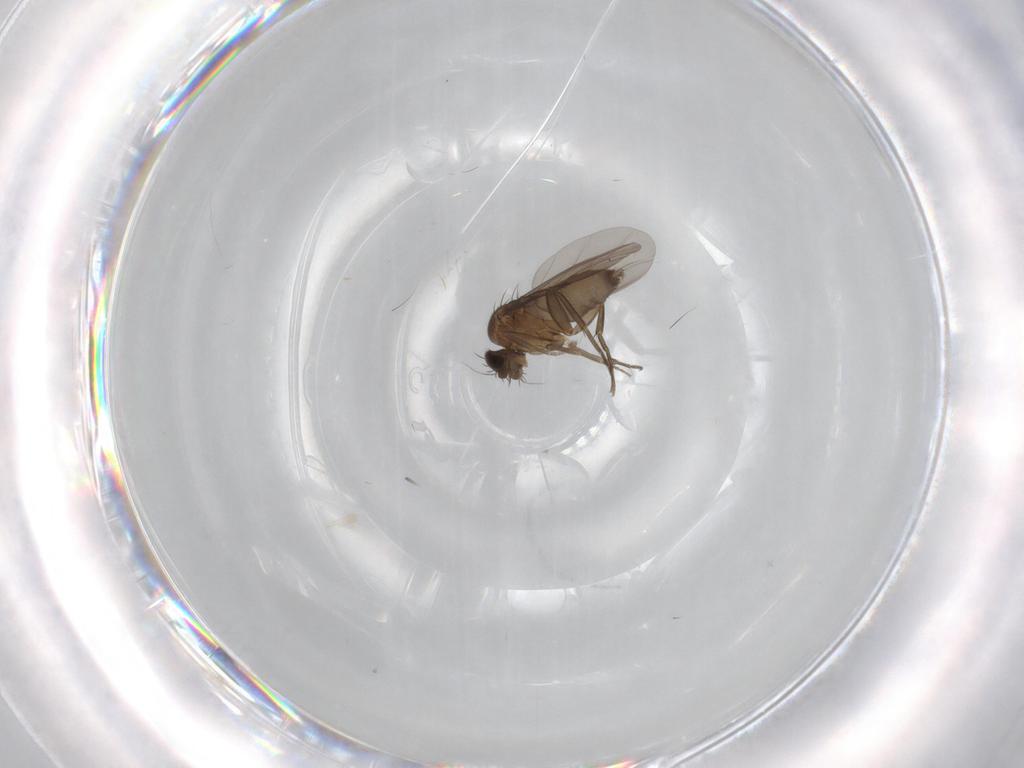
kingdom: Animalia
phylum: Arthropoda
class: Insecta
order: Diptera
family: Phoridae
